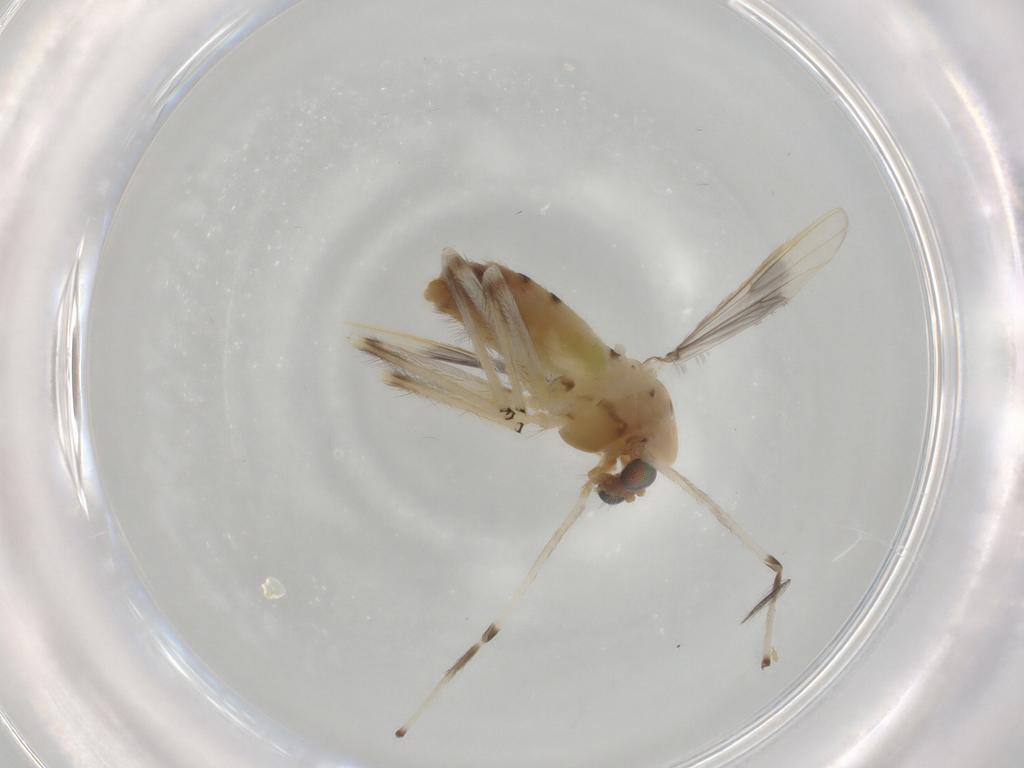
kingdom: Animalia
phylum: Arthropoda
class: Insecta
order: Diptera
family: Chironomidae
